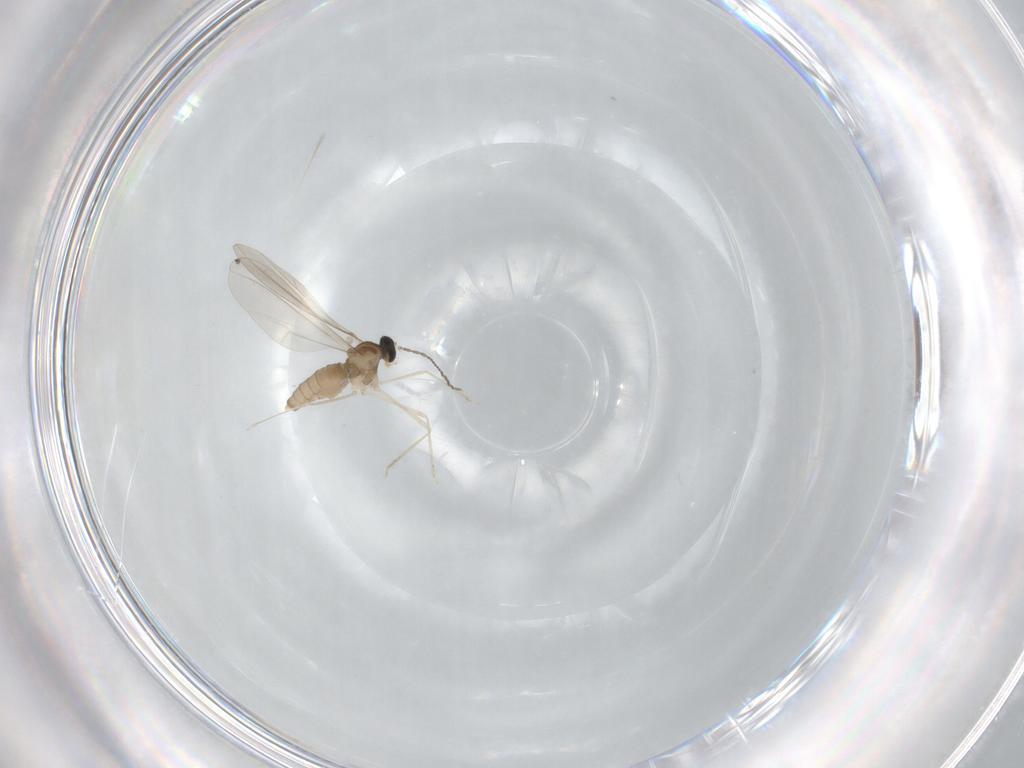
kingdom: Animalia
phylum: Arthropoda
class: Insecta
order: Diptera
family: Cecidomyiidae
